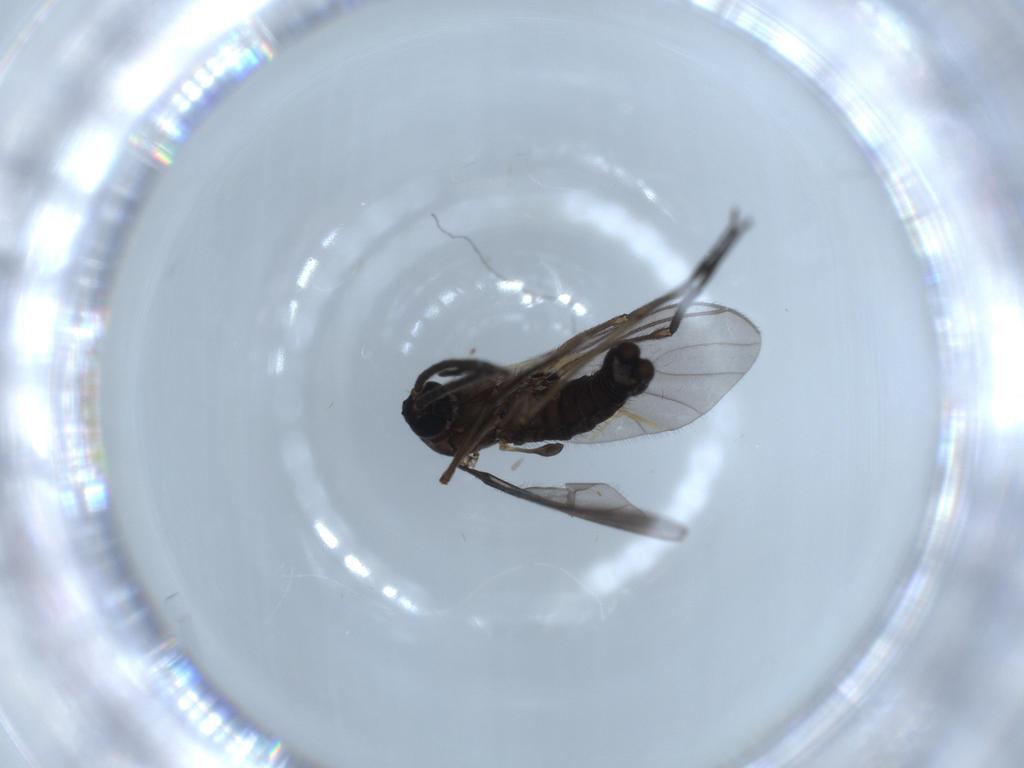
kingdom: Animalia
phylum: Arthropoda
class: Insecta
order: Diptera
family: Sciaridae
